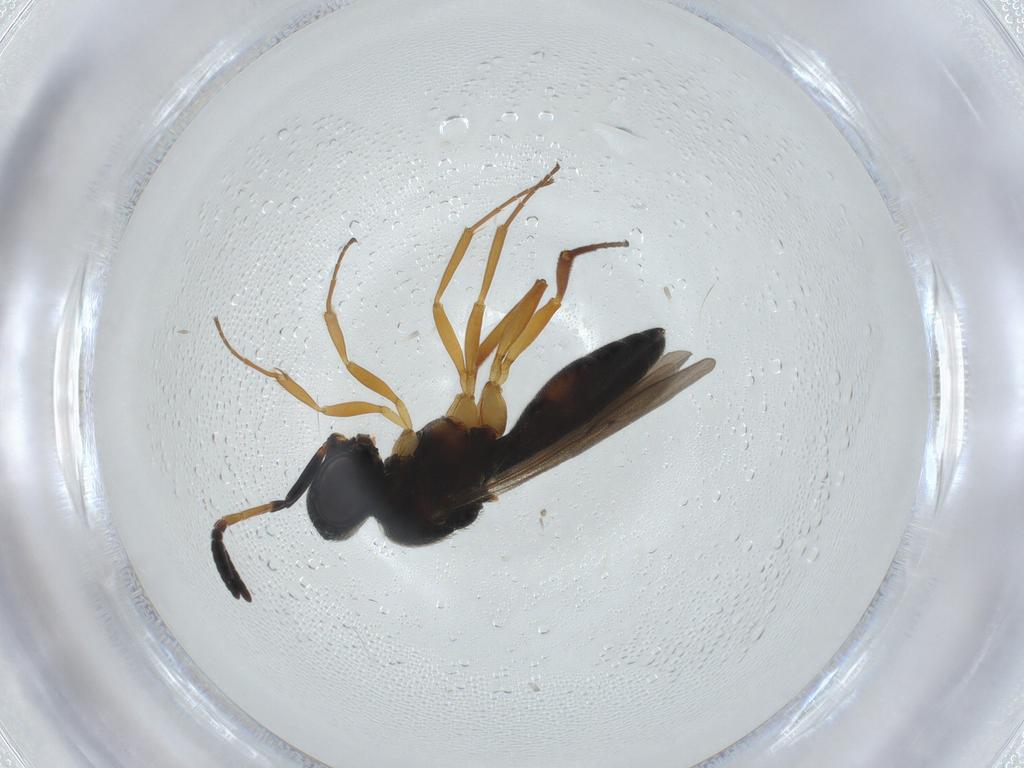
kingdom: Animalia
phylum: Arthropoda
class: Insecta
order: Hymenoptera
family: Scelionidae
